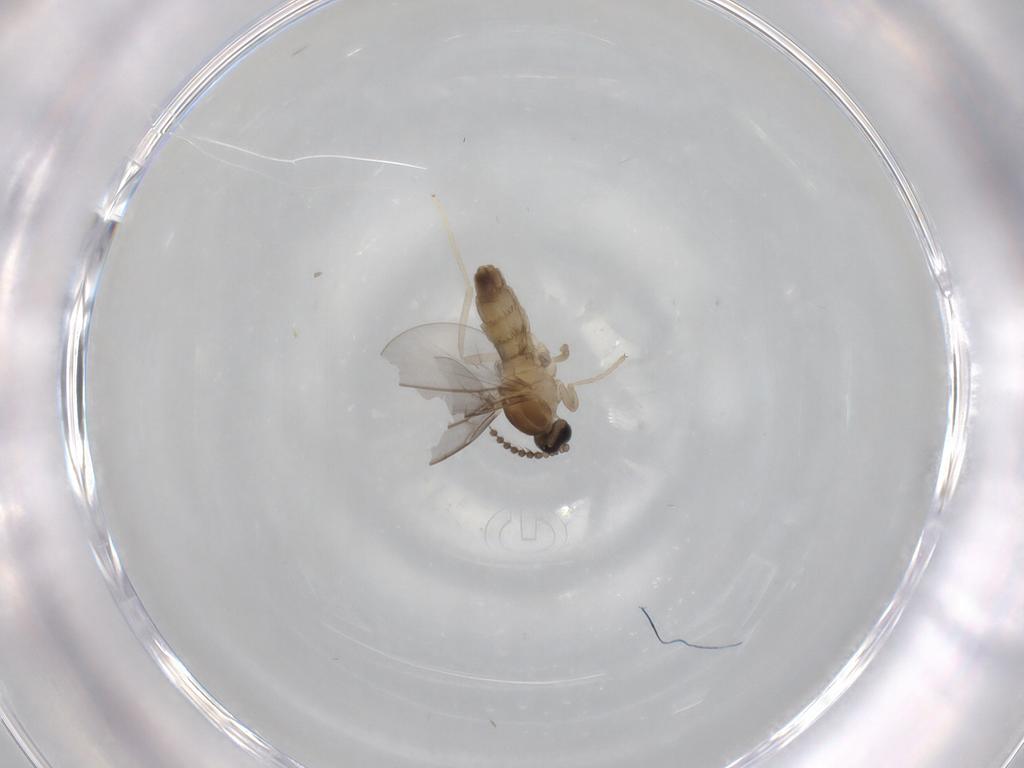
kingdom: Animalia
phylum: Arthropoda
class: Insecta
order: Diptera
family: Cecidomyiidae
